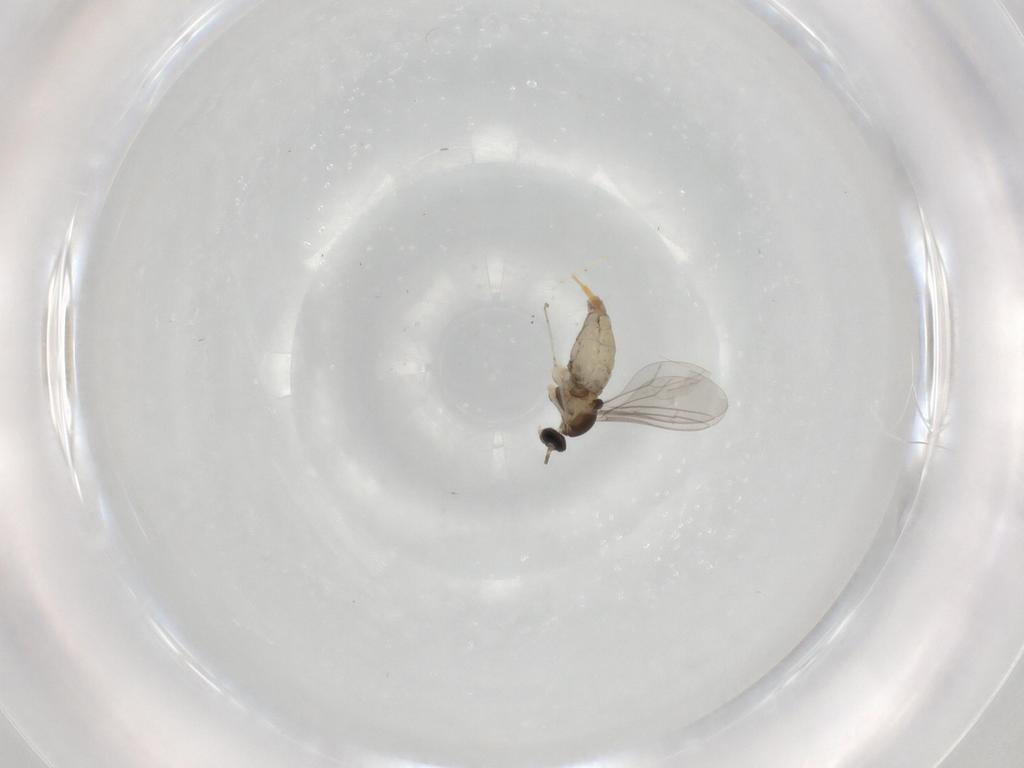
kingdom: Animalia
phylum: Arthropoda
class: Insecta
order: Diptera
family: Cecidomyiidae
